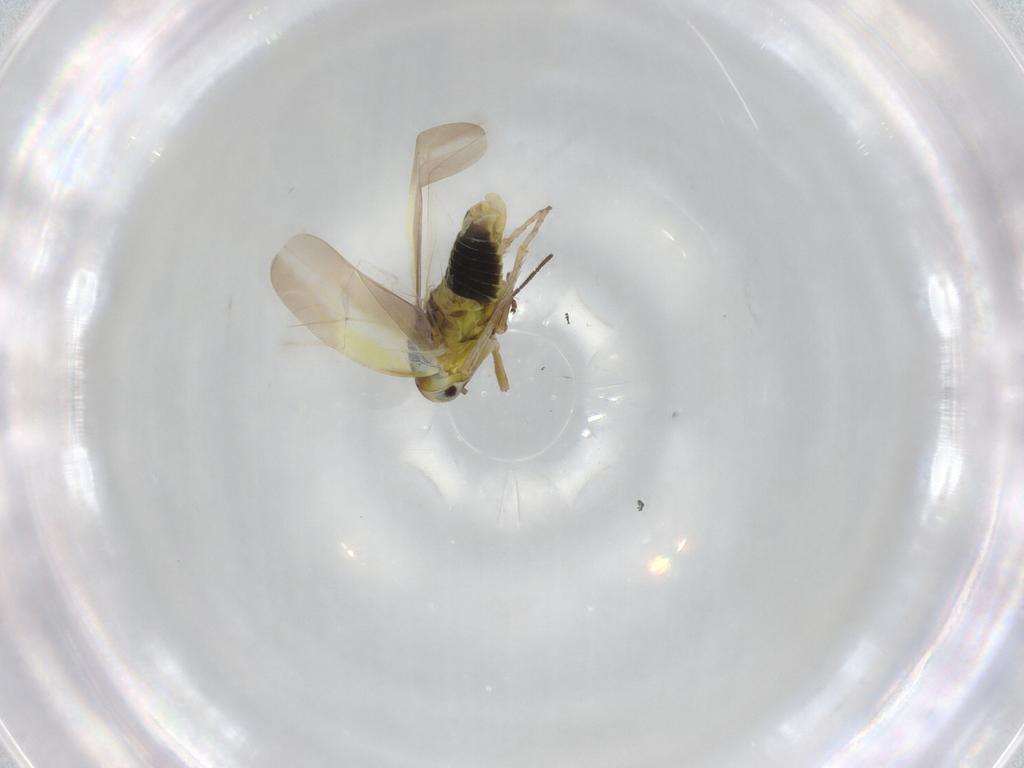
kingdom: Animalia
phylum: Arthropoda
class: Insecta
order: Hemiptera
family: Cicadellidae
